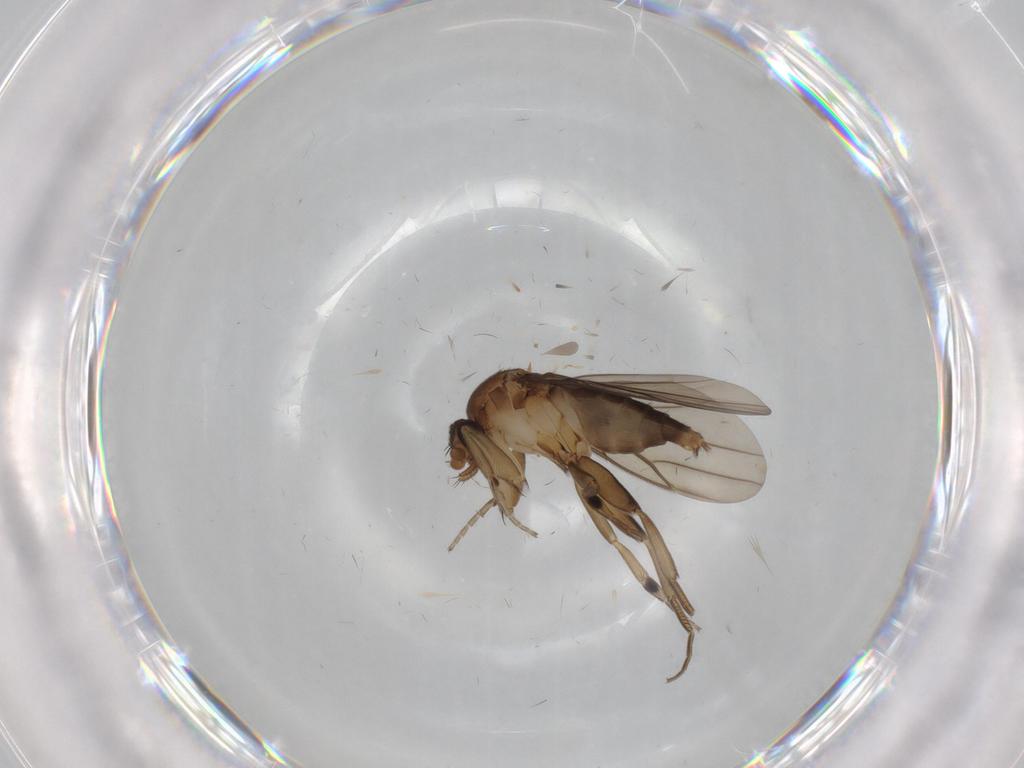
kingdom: Animalia
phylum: Arthropoda
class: Insecta
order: Diptera
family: Phoridae
